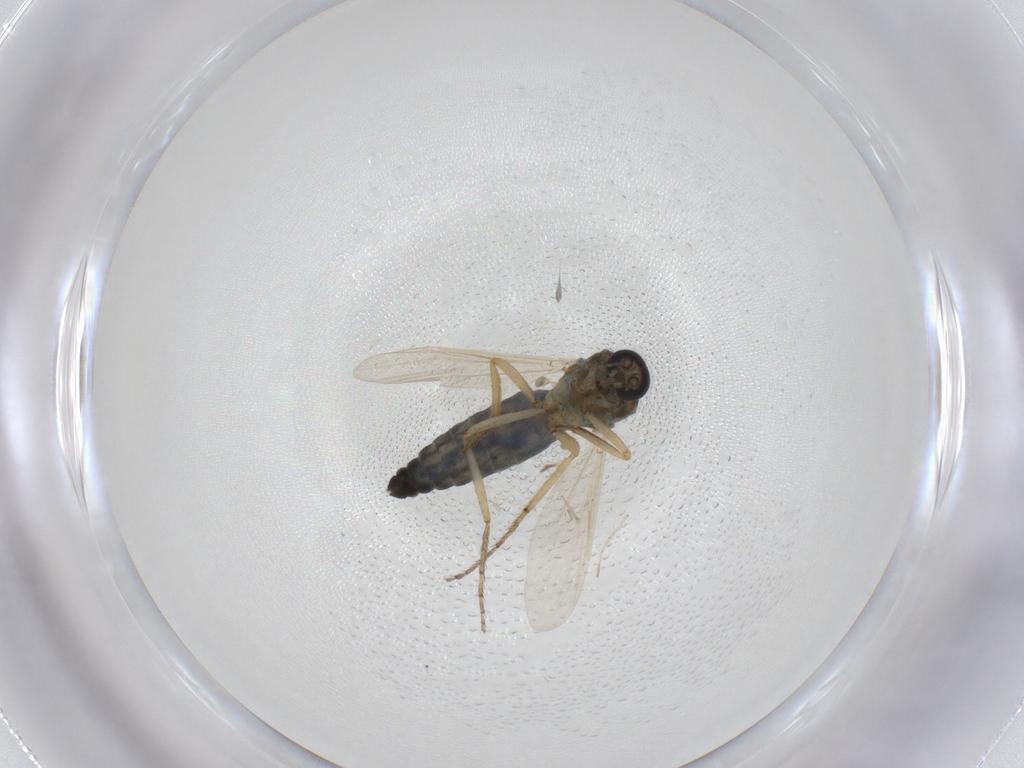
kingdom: Animalia
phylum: Arthropoda
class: Insecta
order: Diptera
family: Ceratopogonidae
